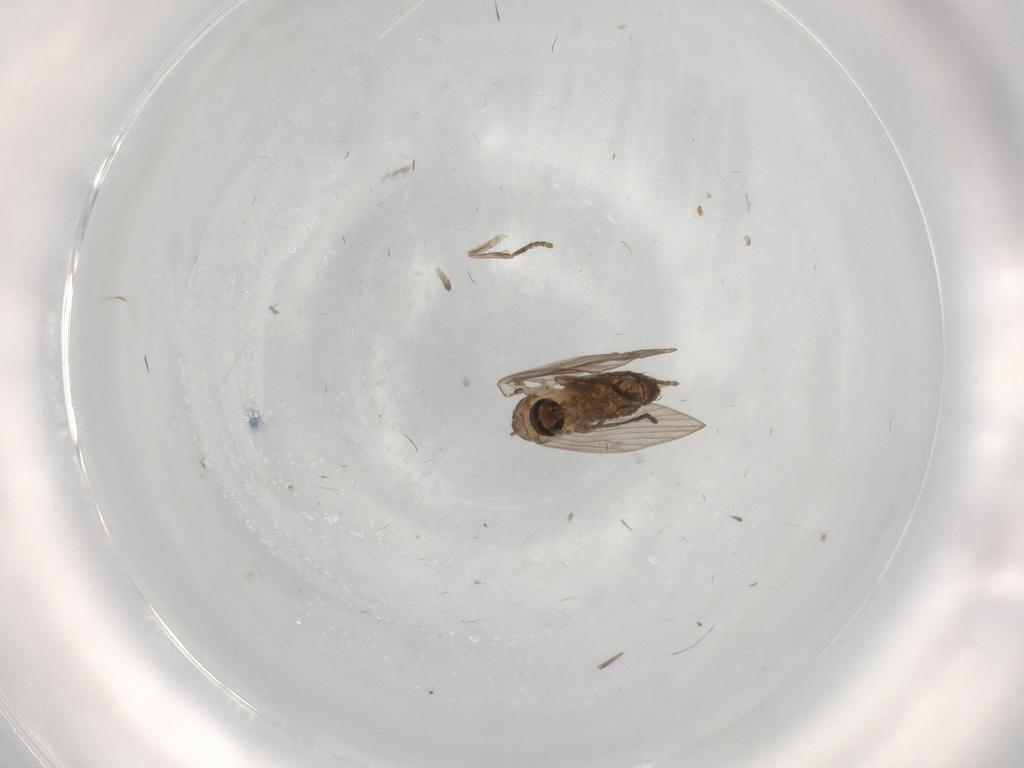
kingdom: Animalia
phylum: Arthropoda
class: Insecta
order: Diptera
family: Psychodidae
